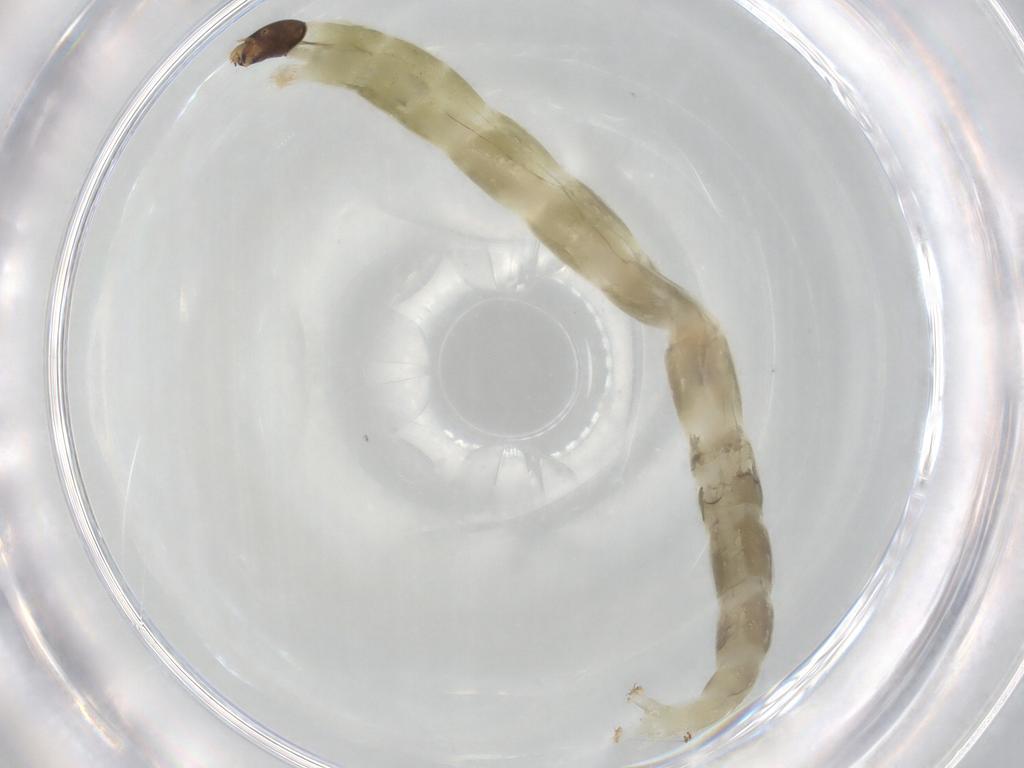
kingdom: Animalia
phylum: Arthropoda
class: Insecta
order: Diptera
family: Chironomidae
